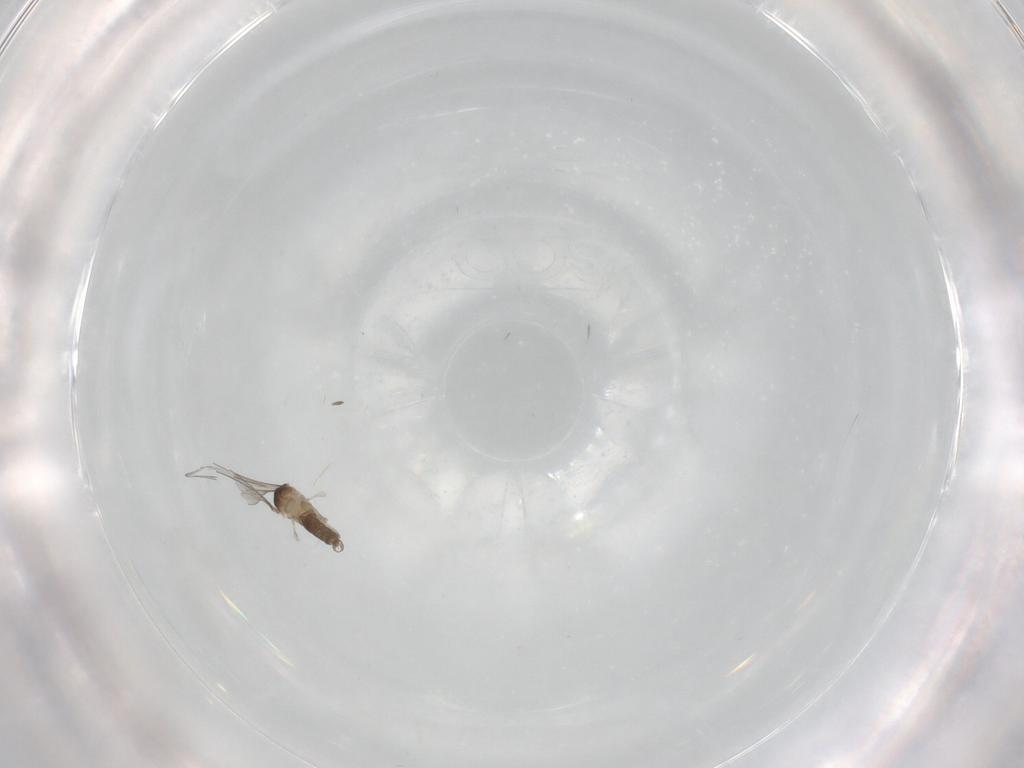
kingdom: Animalia
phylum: Arthropoda
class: Insecta
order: Diptera
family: Cecidomyiidae
